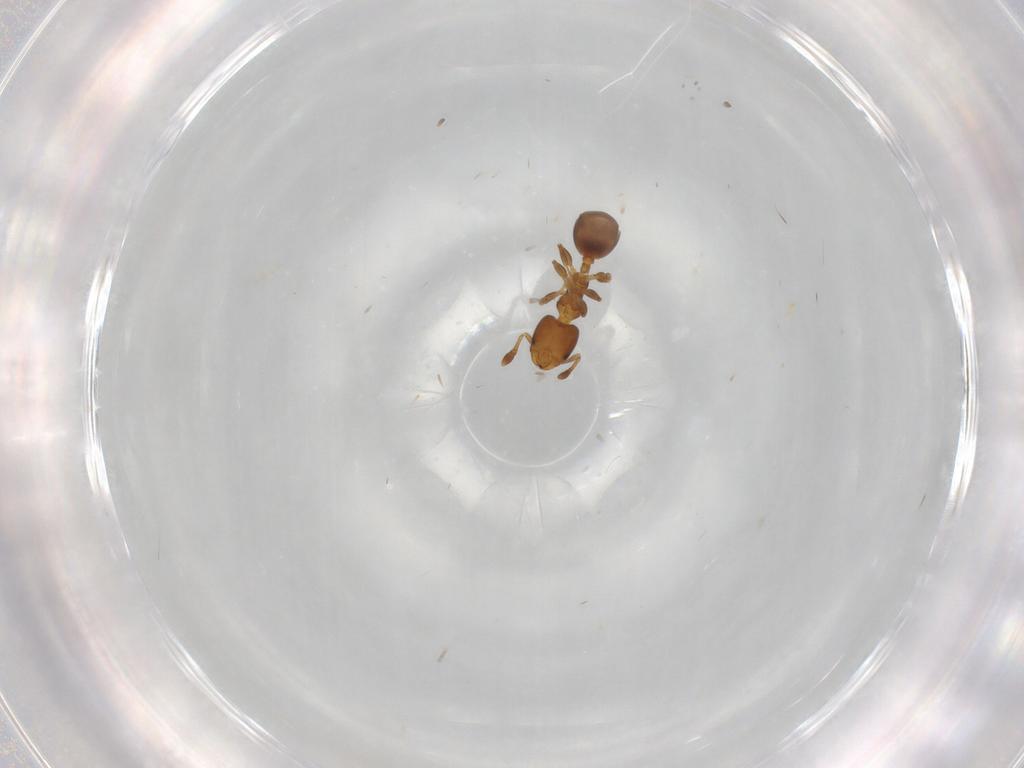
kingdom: Animalia
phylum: Arthropoda
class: Insecta
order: Hymenoptera
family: Formicidae
